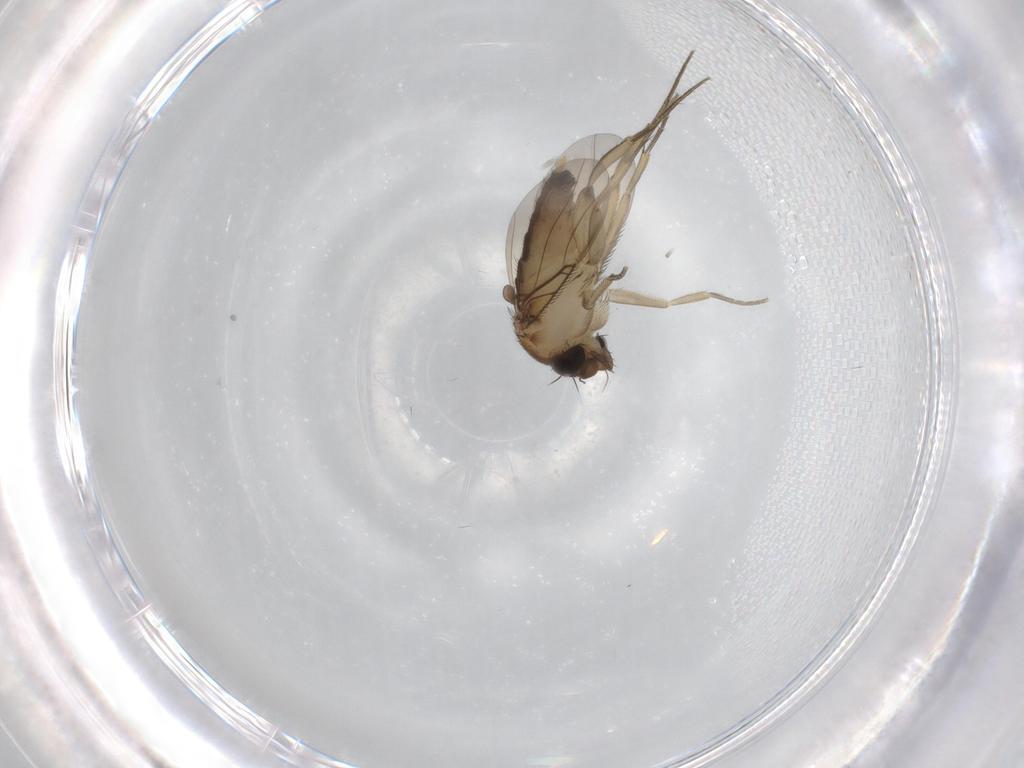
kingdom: Animalia
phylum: Arthropoda
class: Insecta
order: Diptera
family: Phoridae
